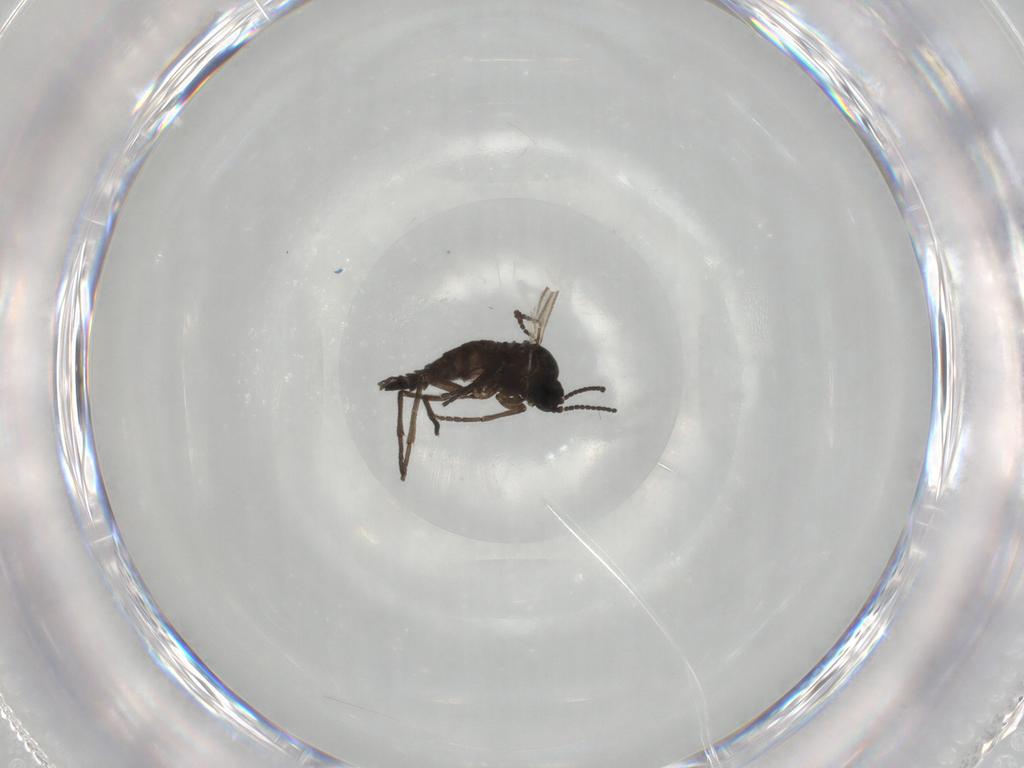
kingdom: Animalia
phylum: Arthropoda
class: Insecta
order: Diptera
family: Sciaridae
